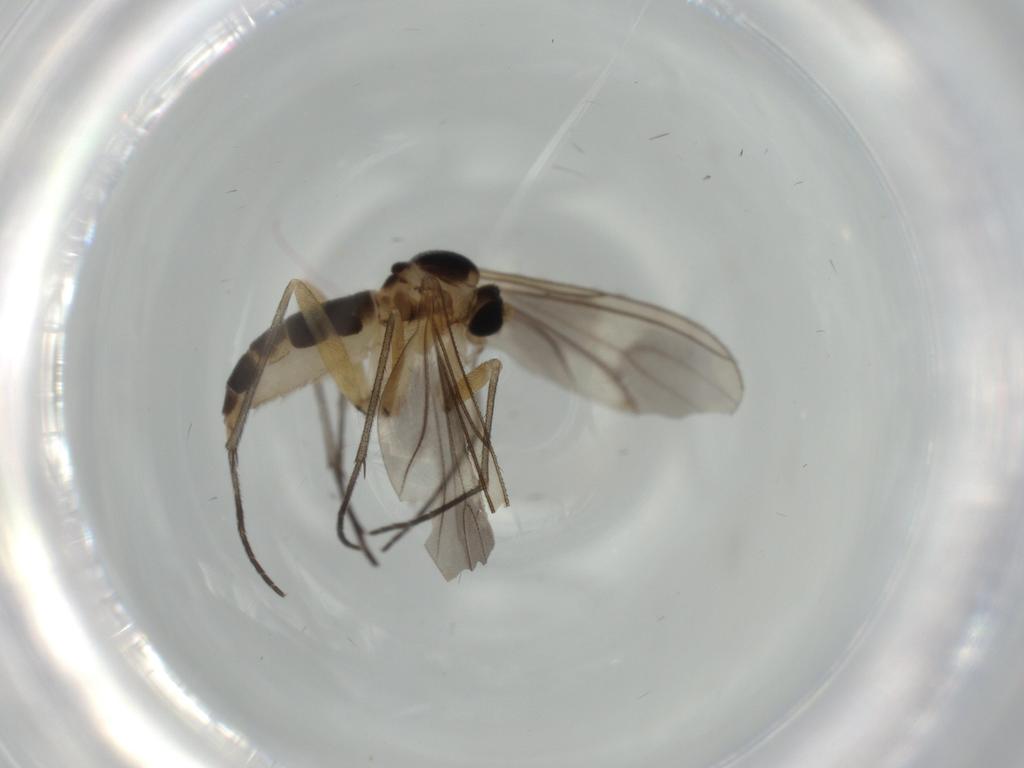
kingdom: Animalia
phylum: Arthropoda
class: Insecta
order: Diptera
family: Sciaridae
